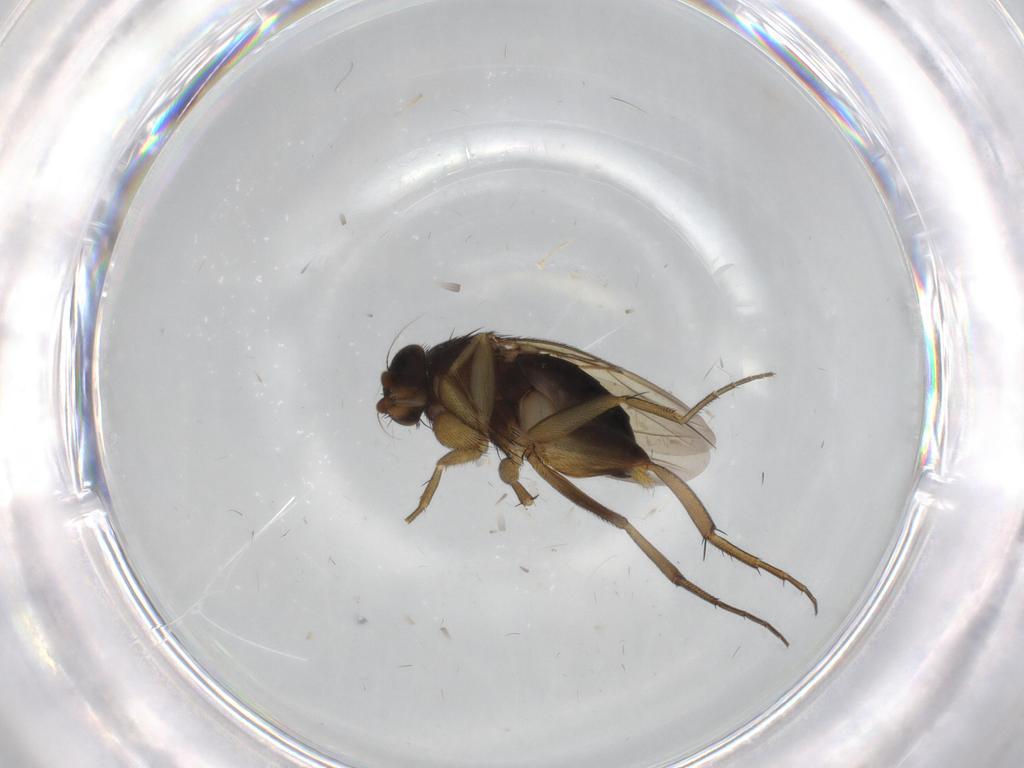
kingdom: Animalia
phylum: Arthropoda
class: Insecta
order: Diptera
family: Phoridae
